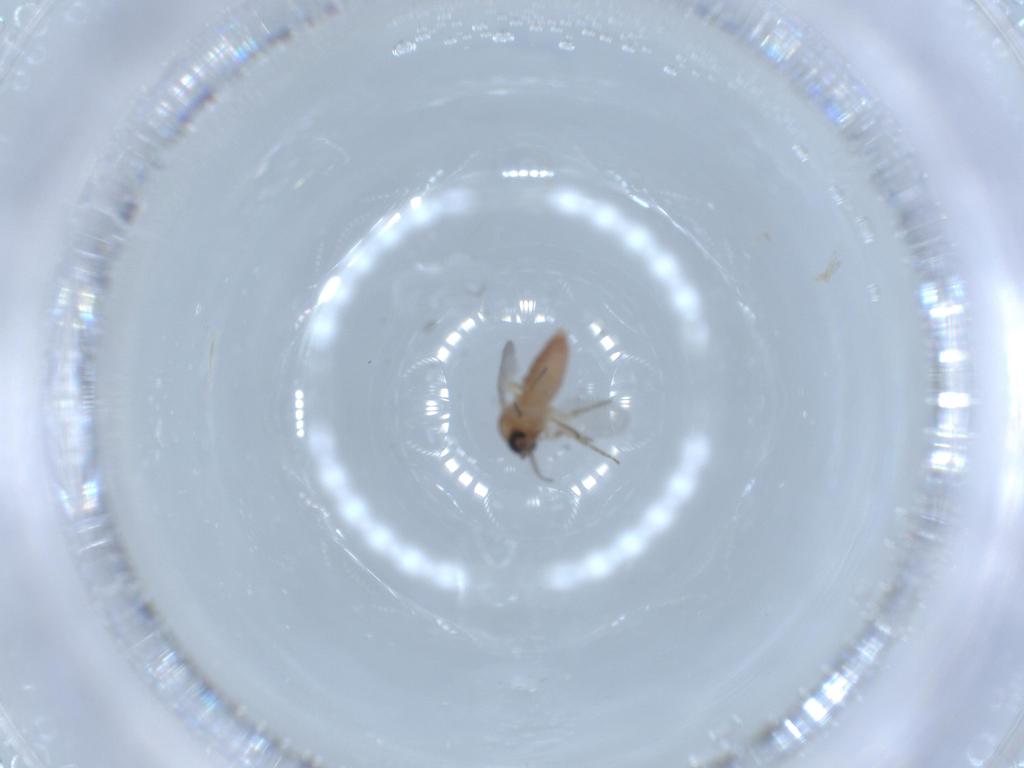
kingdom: Animalia
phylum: Arthropoda
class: Insecta
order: Diptera
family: Ceratopogonidae
